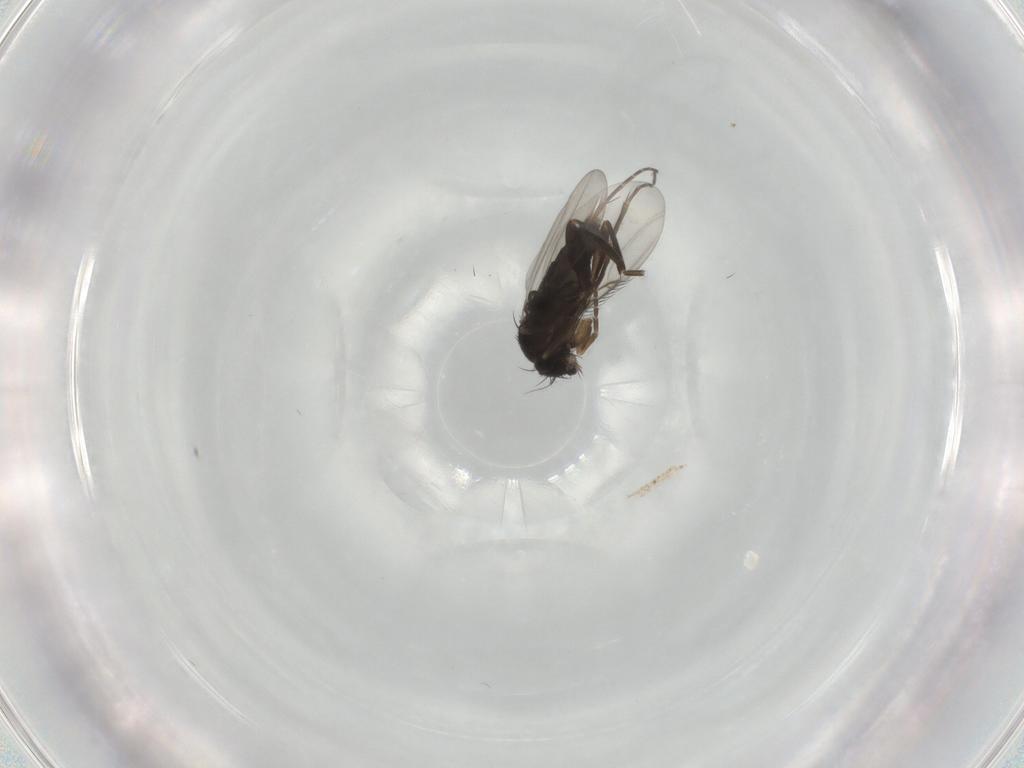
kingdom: Animalia
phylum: Arthropoda
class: Insecta
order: Diptera
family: Phoridae
